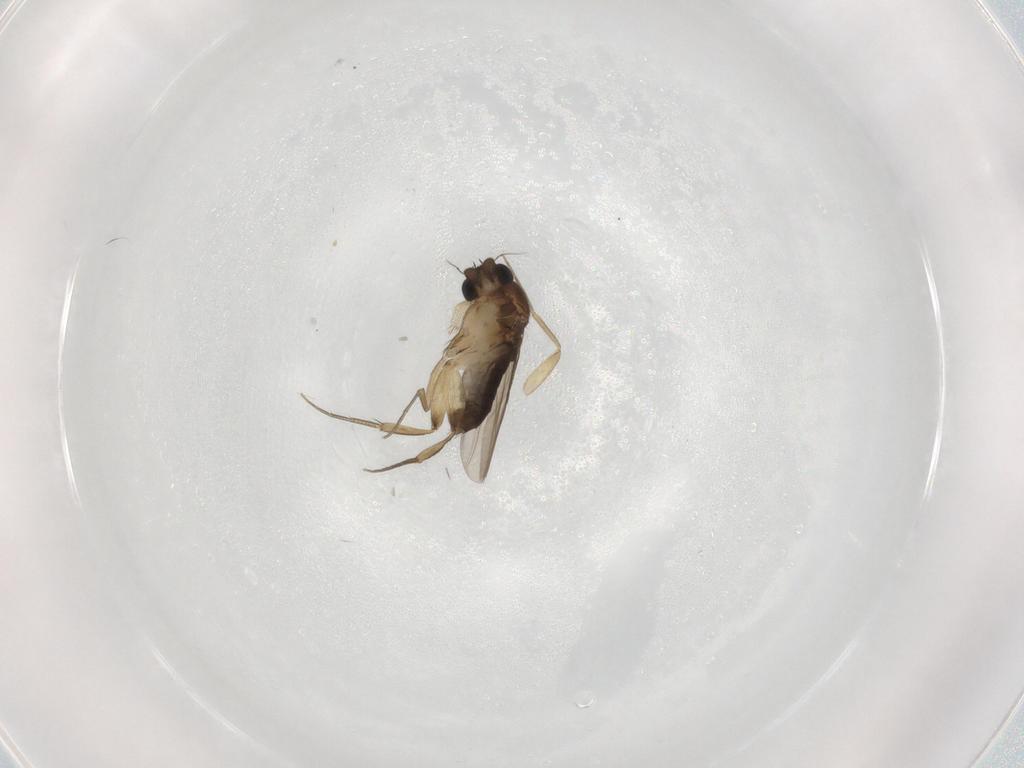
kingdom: Animalia
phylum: Arthropoda
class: Insecta
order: Diptera
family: Phoridae
